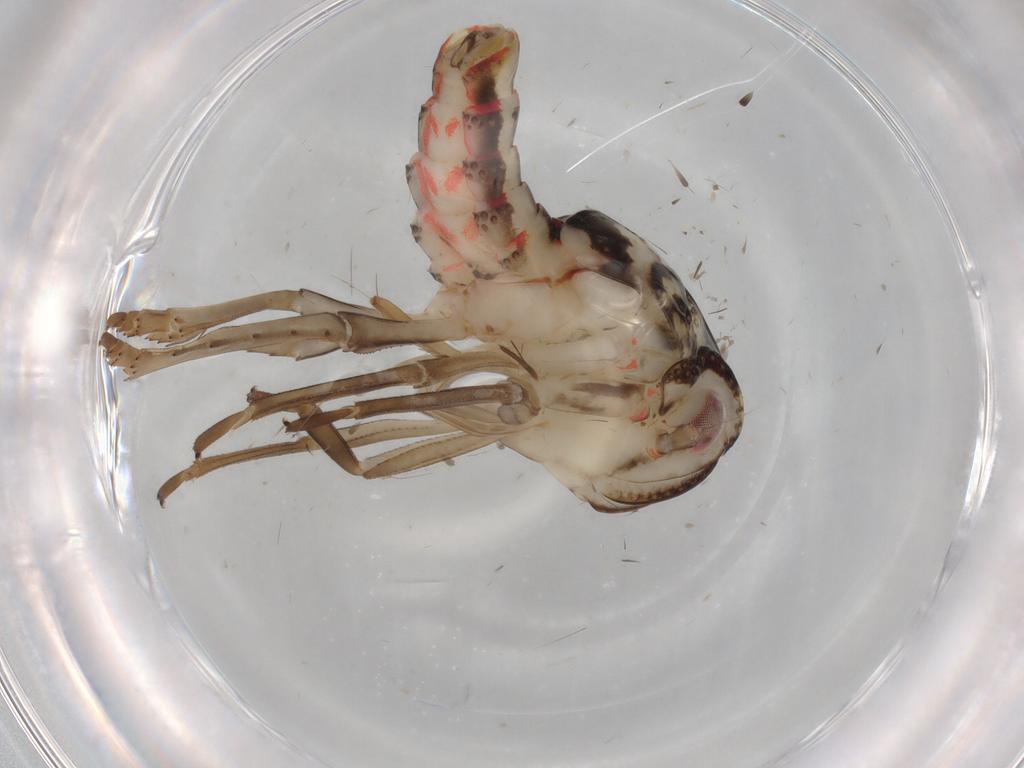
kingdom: Animalia
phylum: Arthropoda
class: Insecta
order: Hemiptera
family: Nogodinidae
